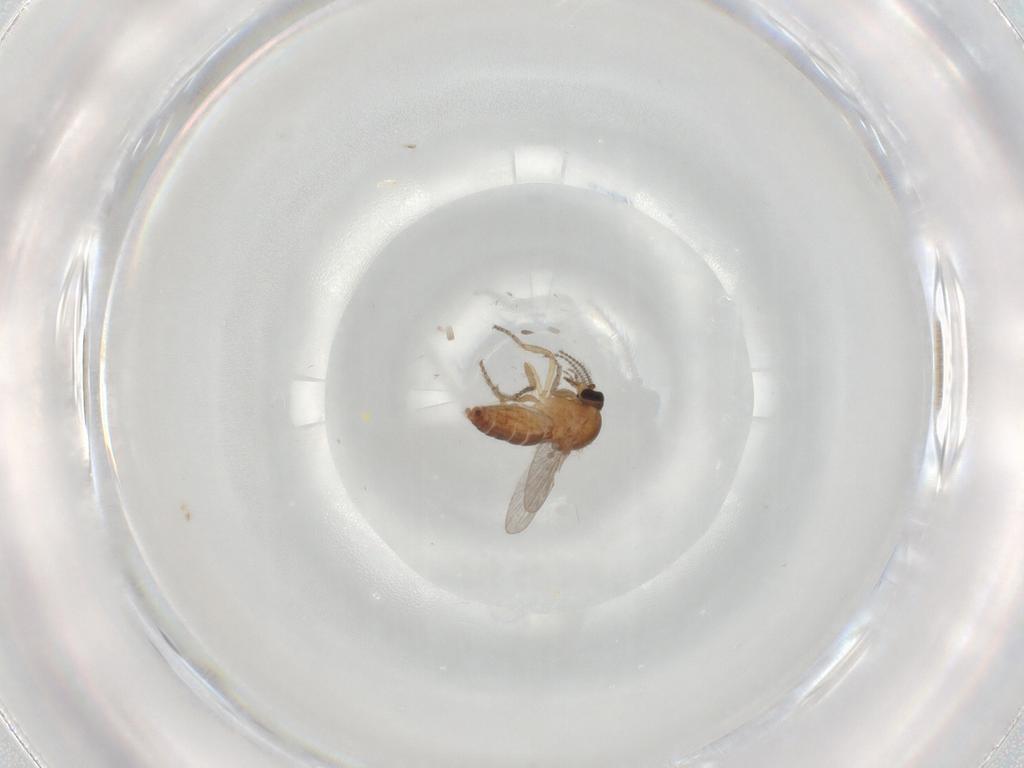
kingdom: Animalia
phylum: Arthropoda
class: Insecta
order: Diptera
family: Ceratopogonidae
